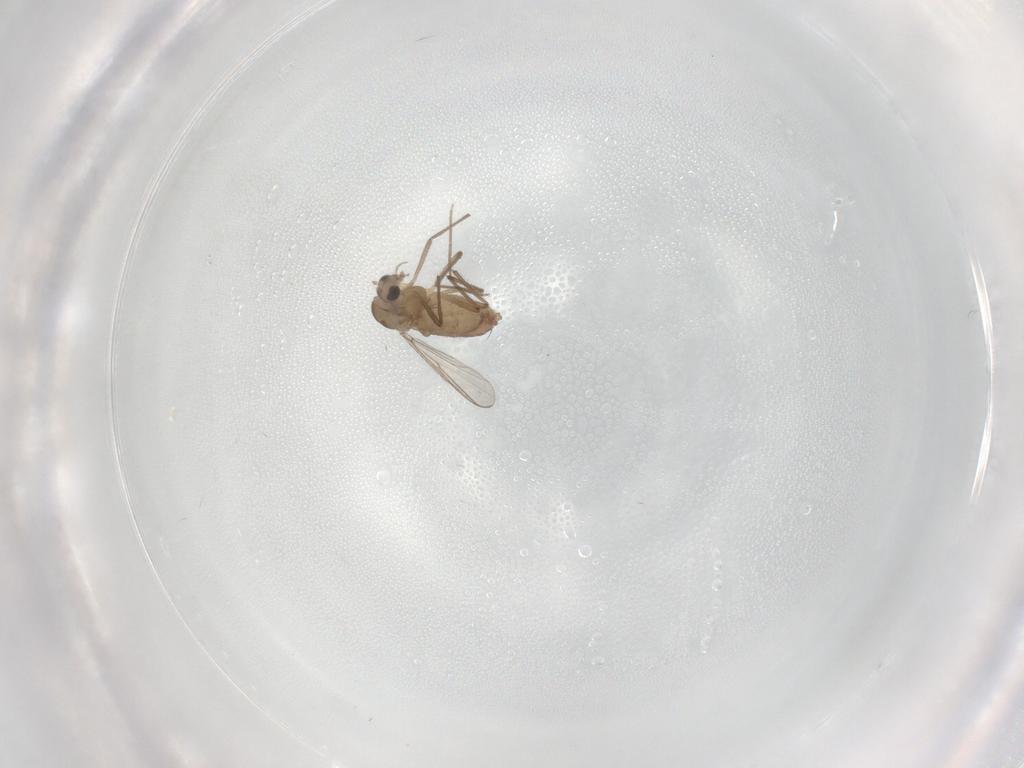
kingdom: Animalia
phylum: Arthropoda
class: Insecta
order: Diptera
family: Chironomidae
